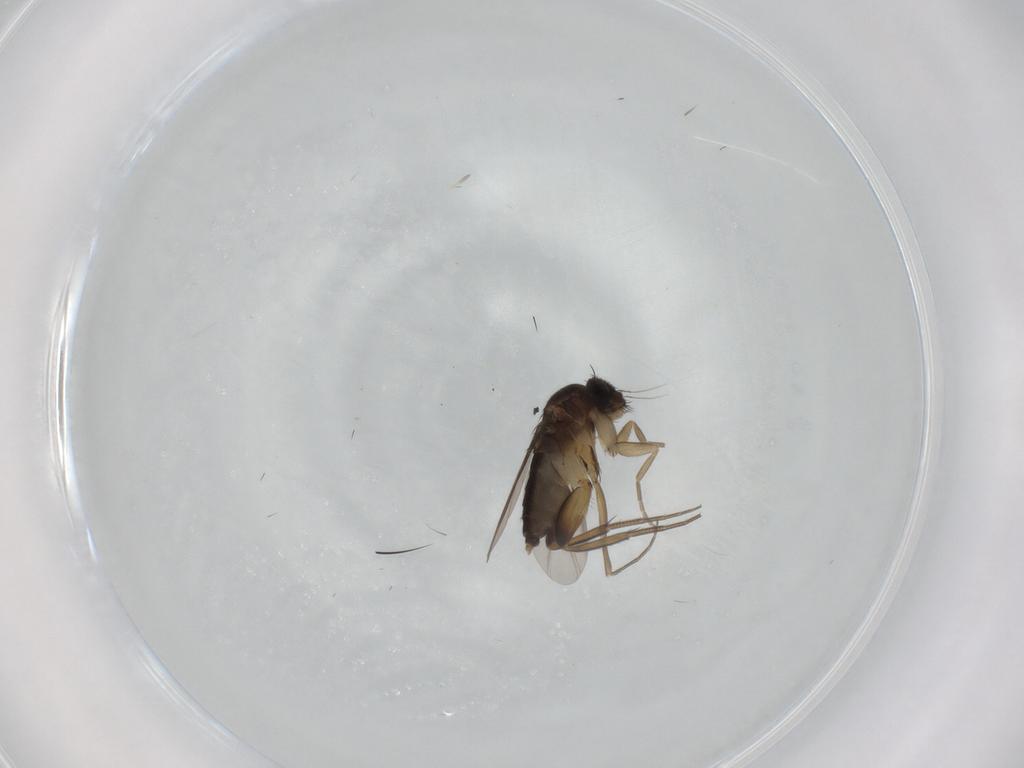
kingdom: Animalia
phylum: Arthropoda
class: Insecta
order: Diptera
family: Phoridae
